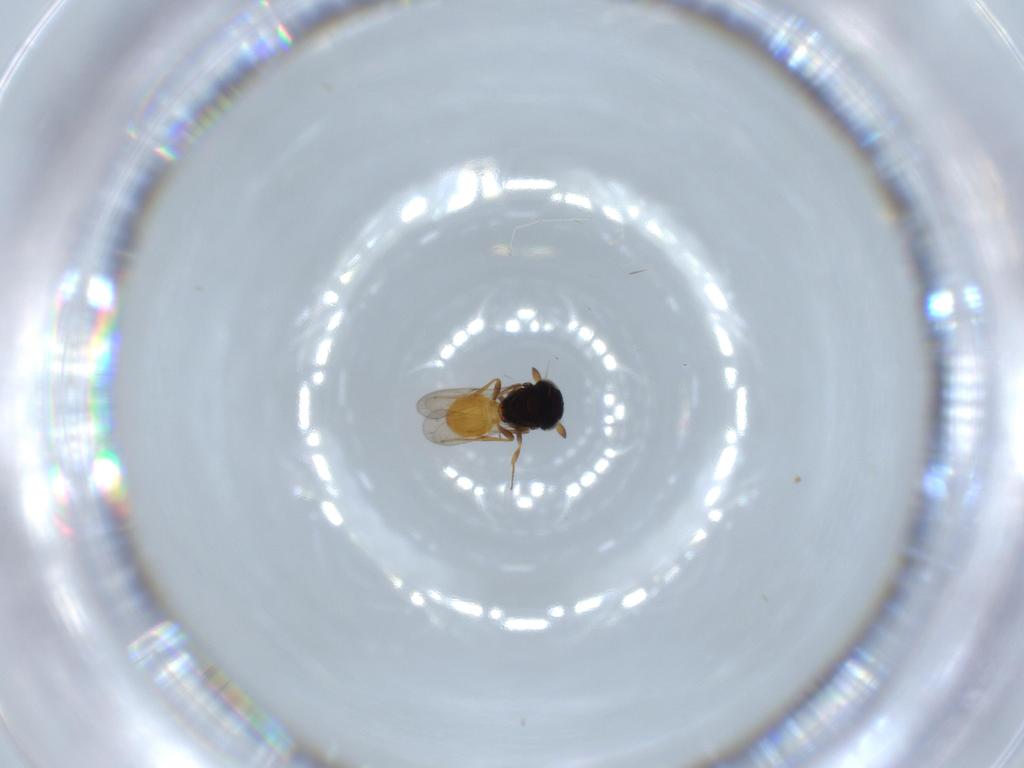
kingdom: Animalia
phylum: Arthropoda
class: Insecta
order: Hymenoptera
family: Scelionidae
